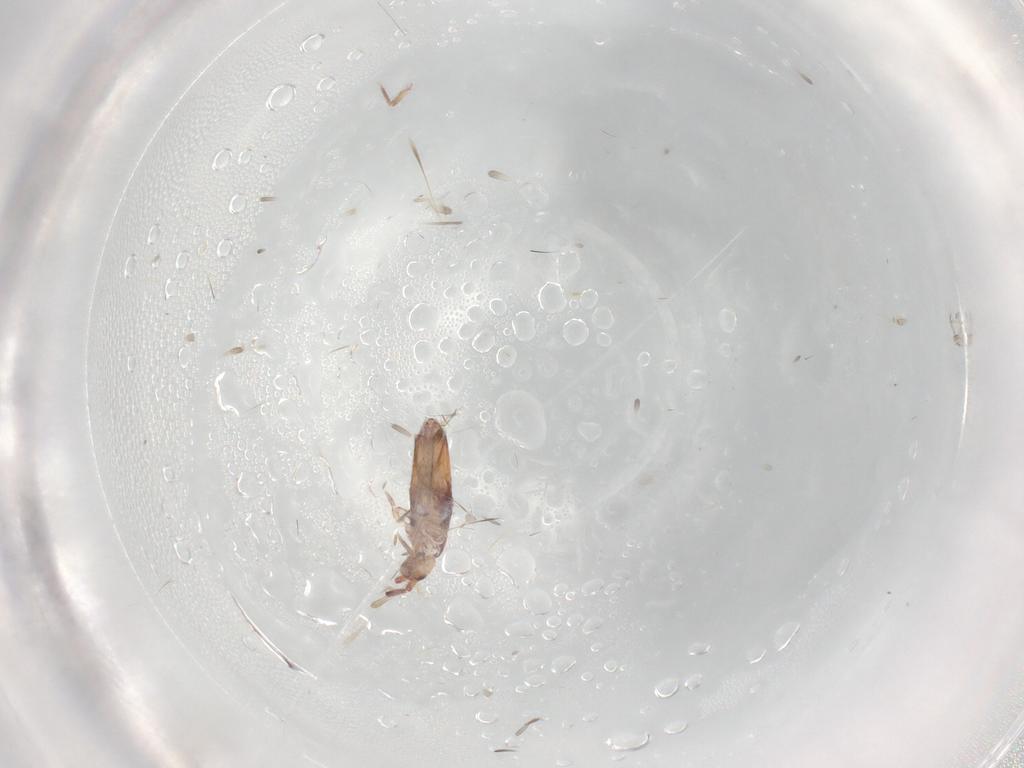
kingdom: Animalia
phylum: Arthropoda
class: Collembola
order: Entomobryomorpha
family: Entomobryidae
